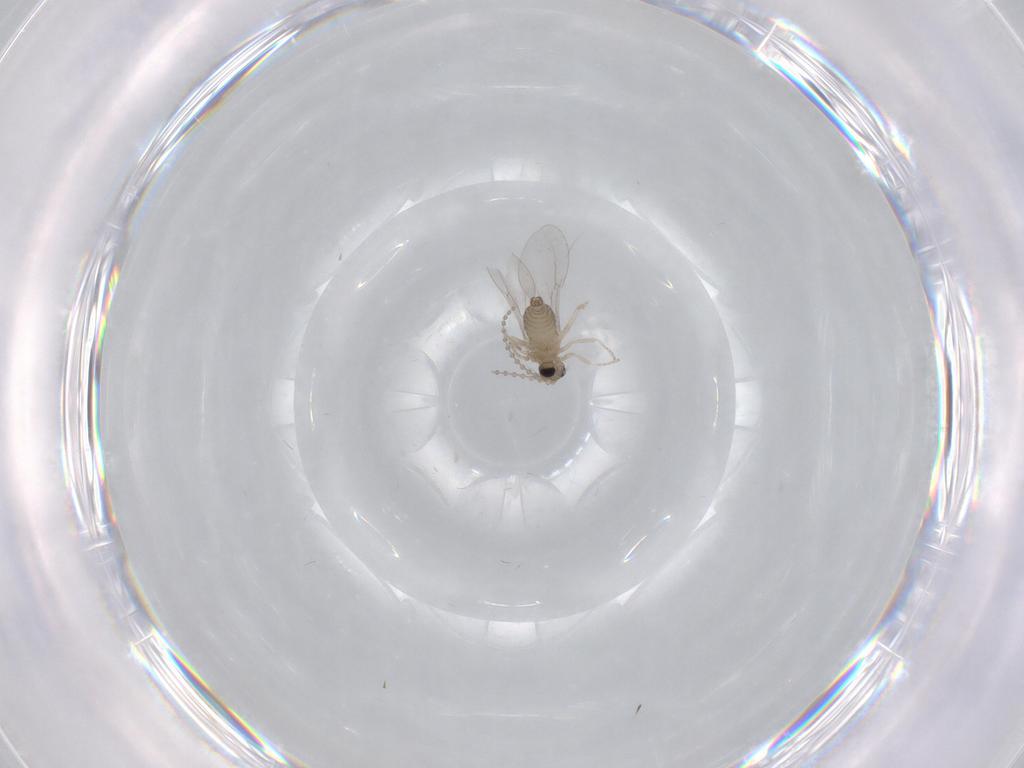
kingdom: Animalia
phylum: Arthropoda
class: Insecta
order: Diptera
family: Cecidomyiidae
